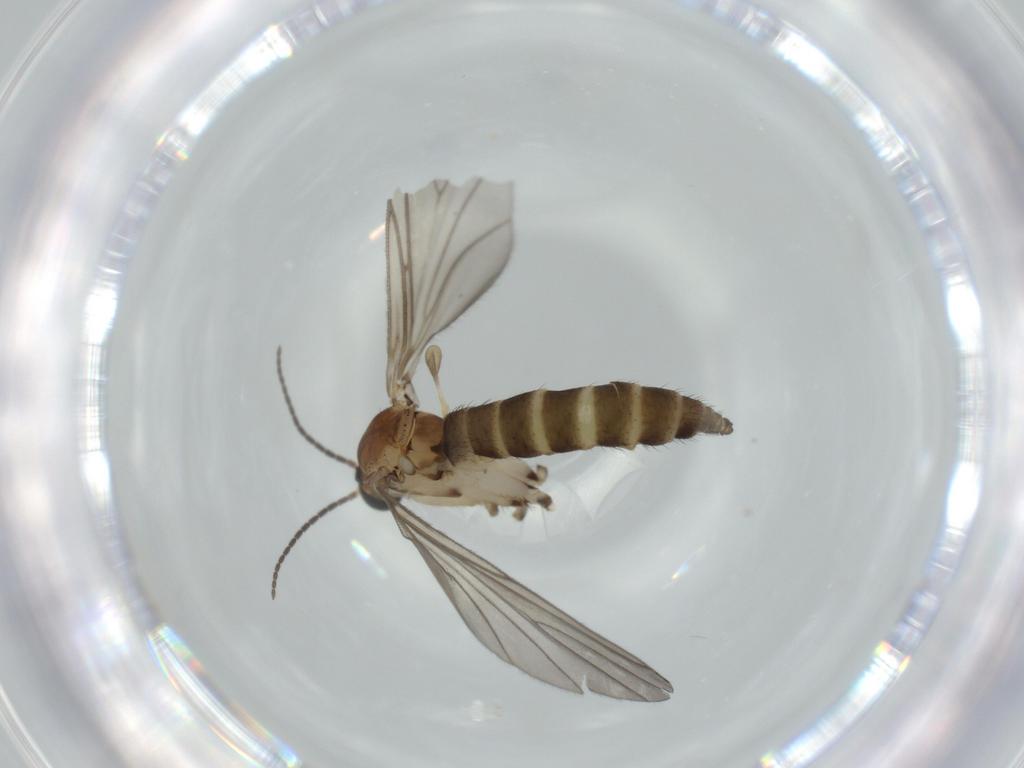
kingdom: Animalia
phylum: Arthropoda
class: Insecta
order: Diptera
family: Sciaridae
